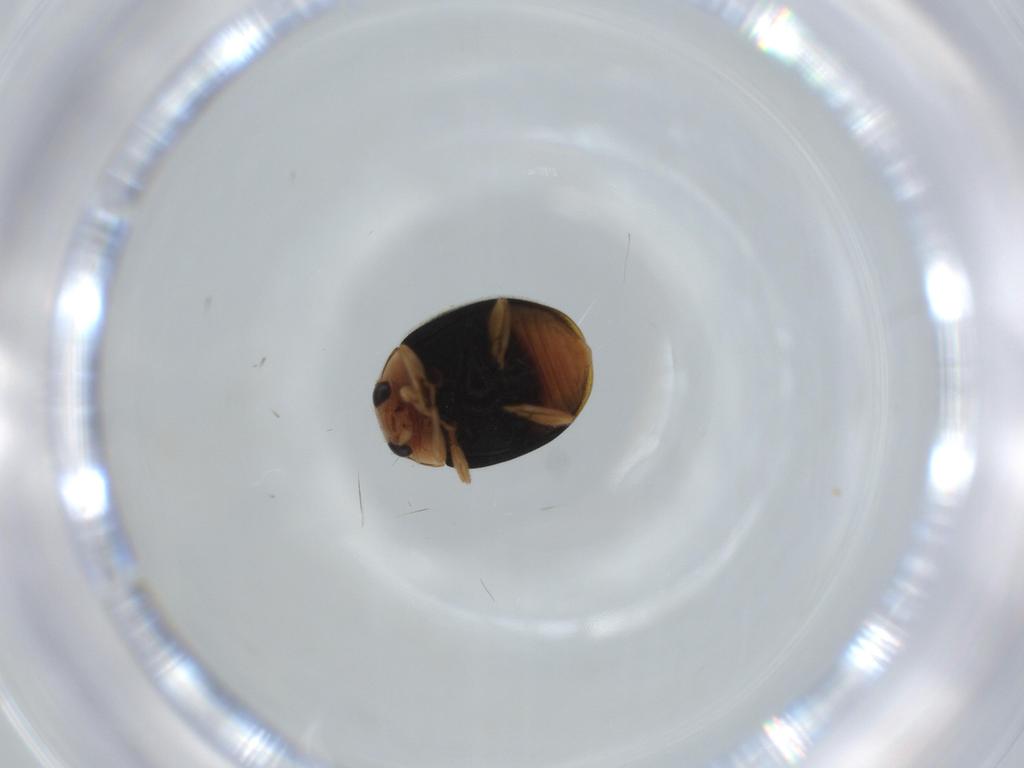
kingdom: Animalia
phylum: Arthropoda
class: Insecta
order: Coleoptera
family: Coccinellidae
